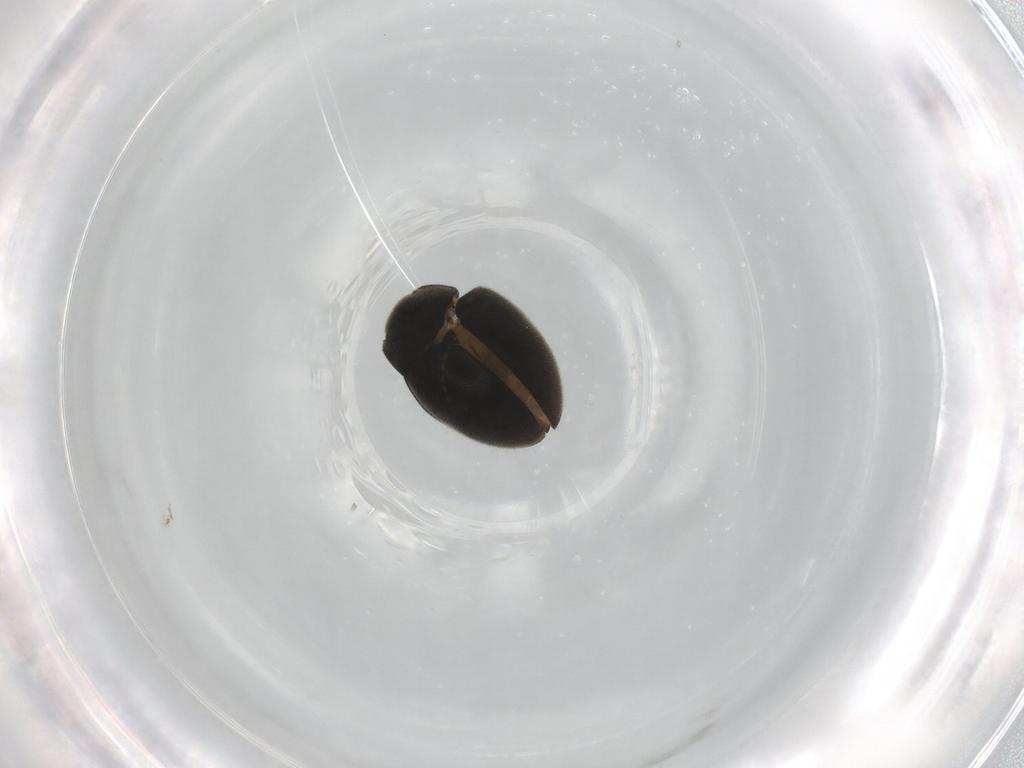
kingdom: Animalia
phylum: Arthropoda
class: Insecta
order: Coleoptera
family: Limnichidae
